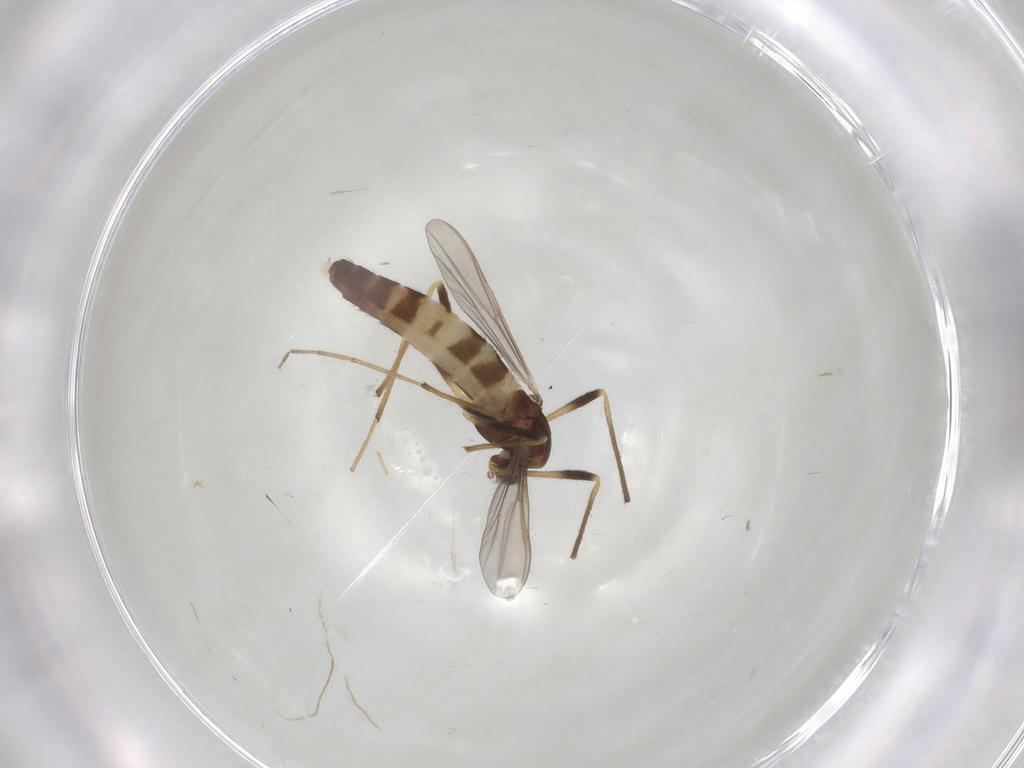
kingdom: Animalia
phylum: Arthropoda
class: Insecta
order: Diptera
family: Chironomidae
